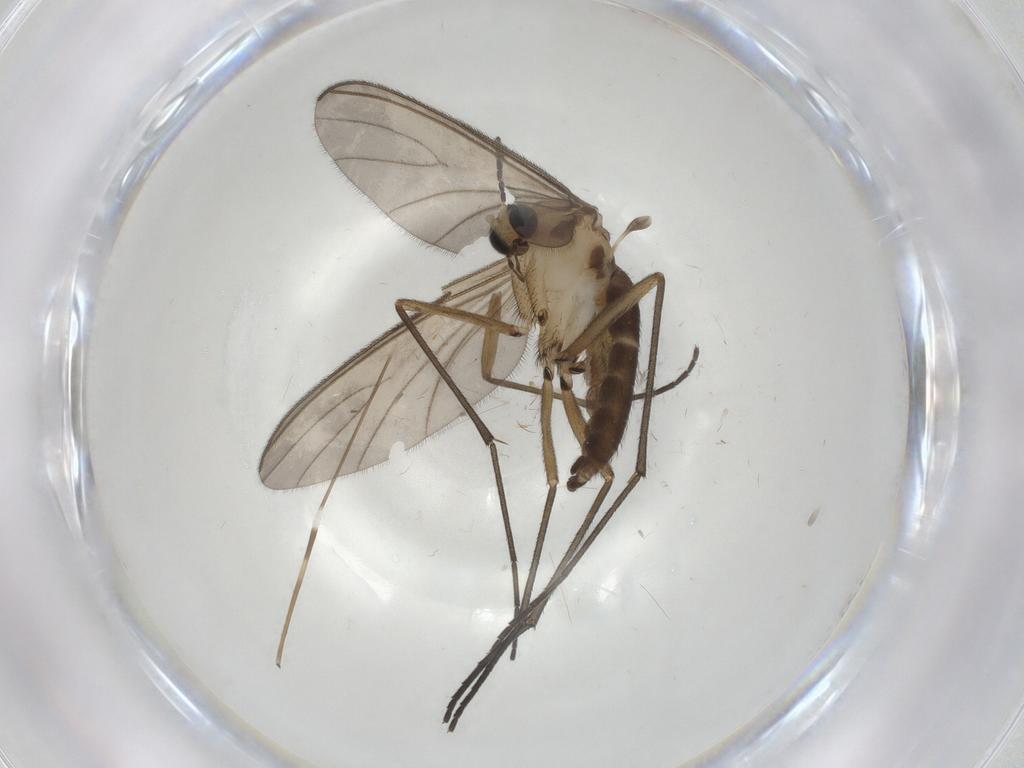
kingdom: Animalia
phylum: Arthropoda
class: Insecta
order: Diptera
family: Sciaridae
